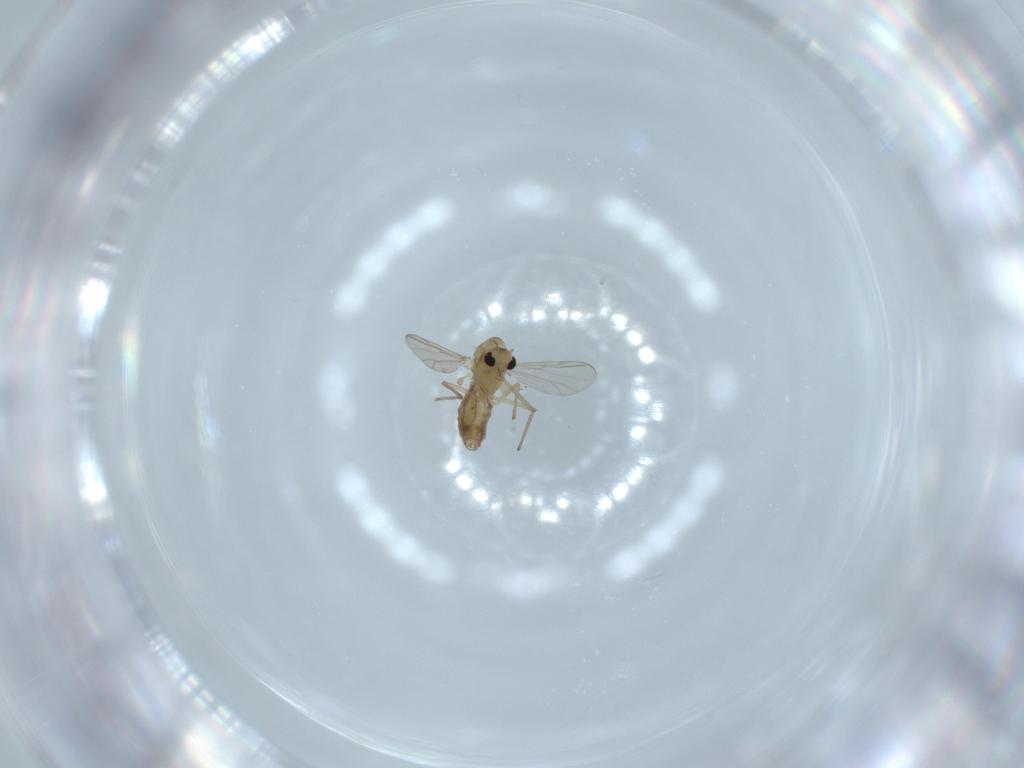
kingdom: Animalia
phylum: Arthropoda
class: Insecta
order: Diptera
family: Chironomidae
